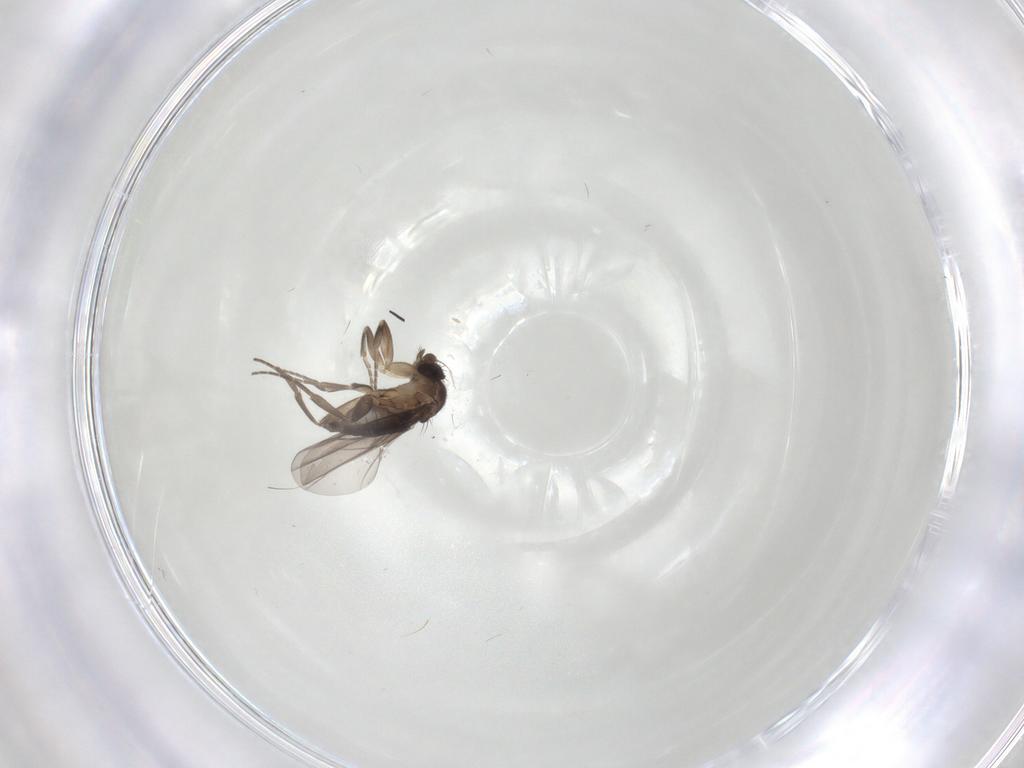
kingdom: Animalia
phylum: Arthropoda
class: Insecta
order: Diptera
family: Phoridae
